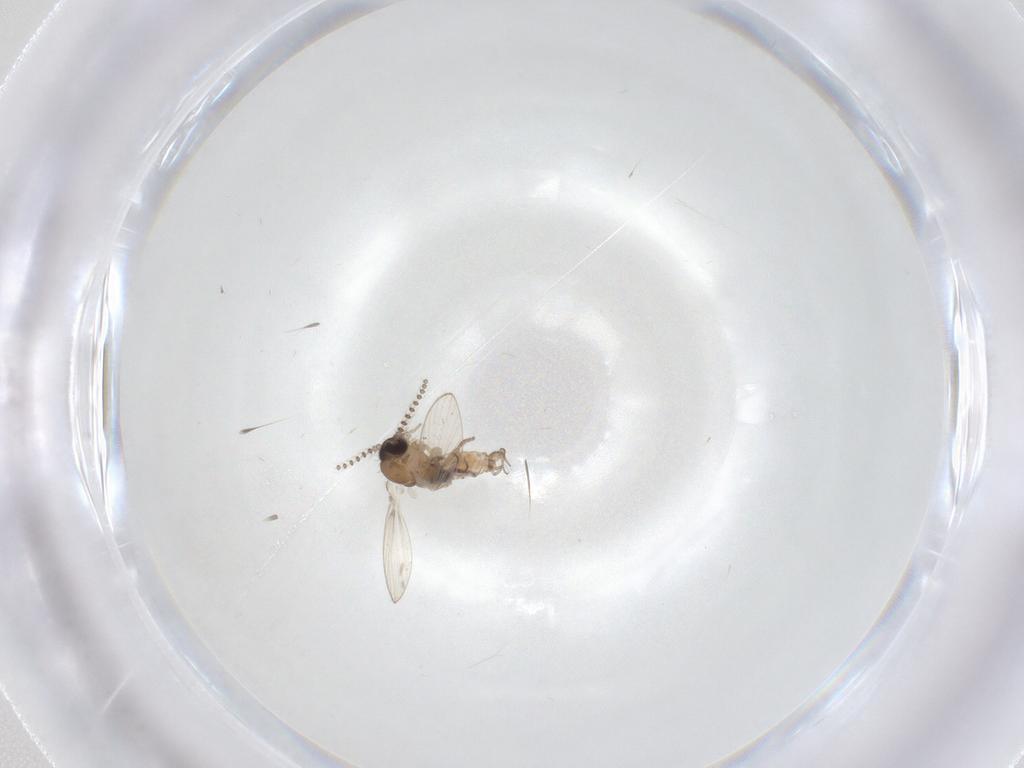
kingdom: Animalia
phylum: Arthropoda
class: Insecta
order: Diptera
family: Psychodidae
